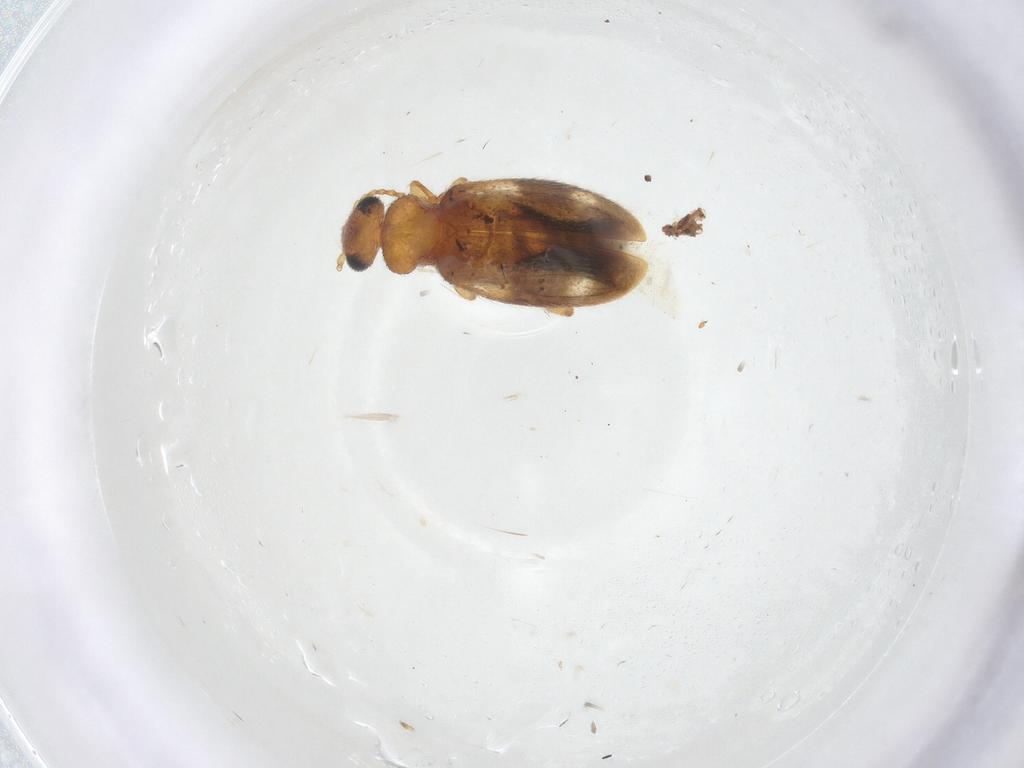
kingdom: Animalia
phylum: Arthropoda
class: Insecta
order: Coleoptera
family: Anthicidae
